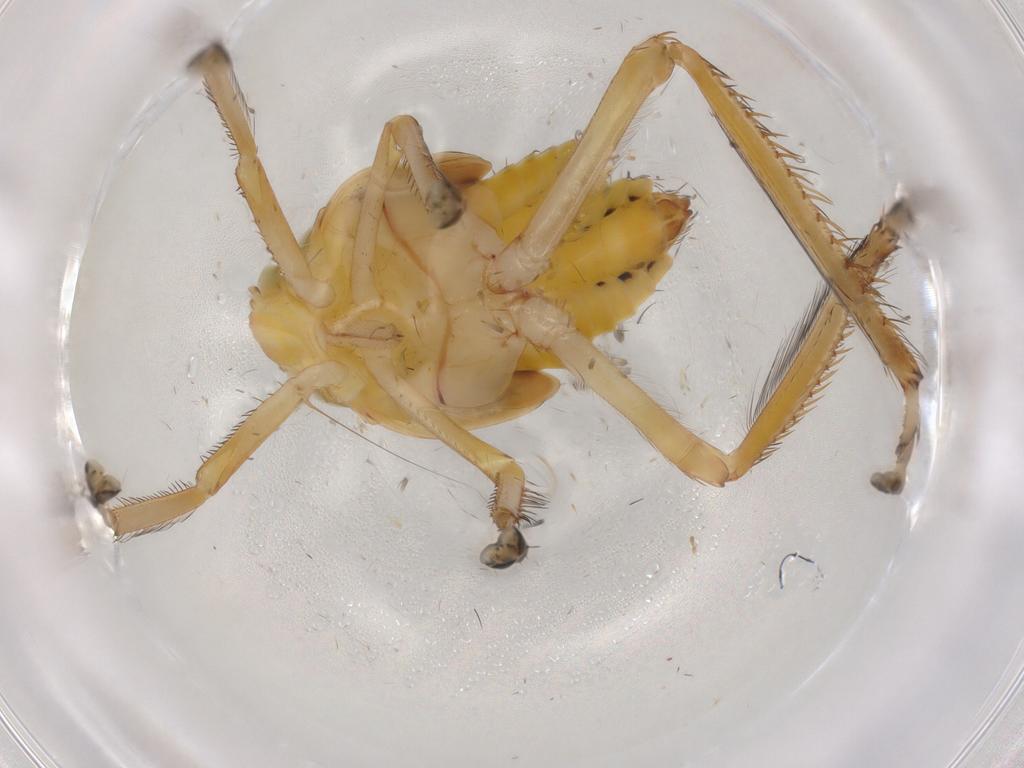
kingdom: Animalia
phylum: Arthropoda
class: Insecta
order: Hemiptera
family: Cicadellidae
